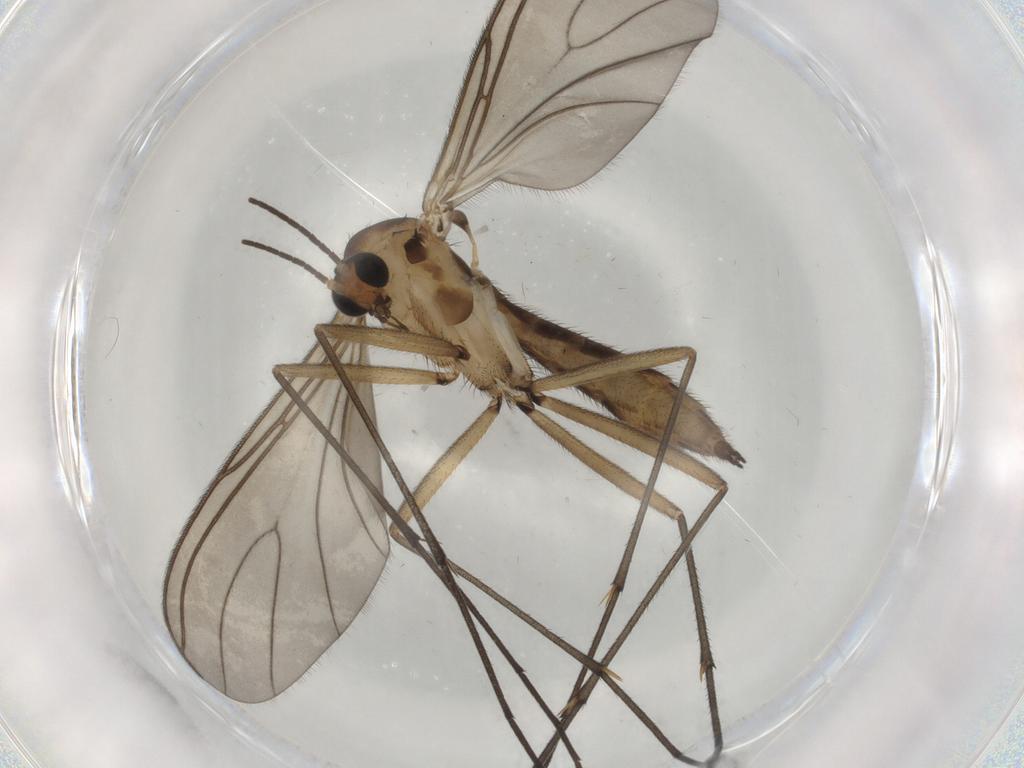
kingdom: Animalia
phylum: Arthropoda
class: Insecta
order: Diptera
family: Sciaridae
